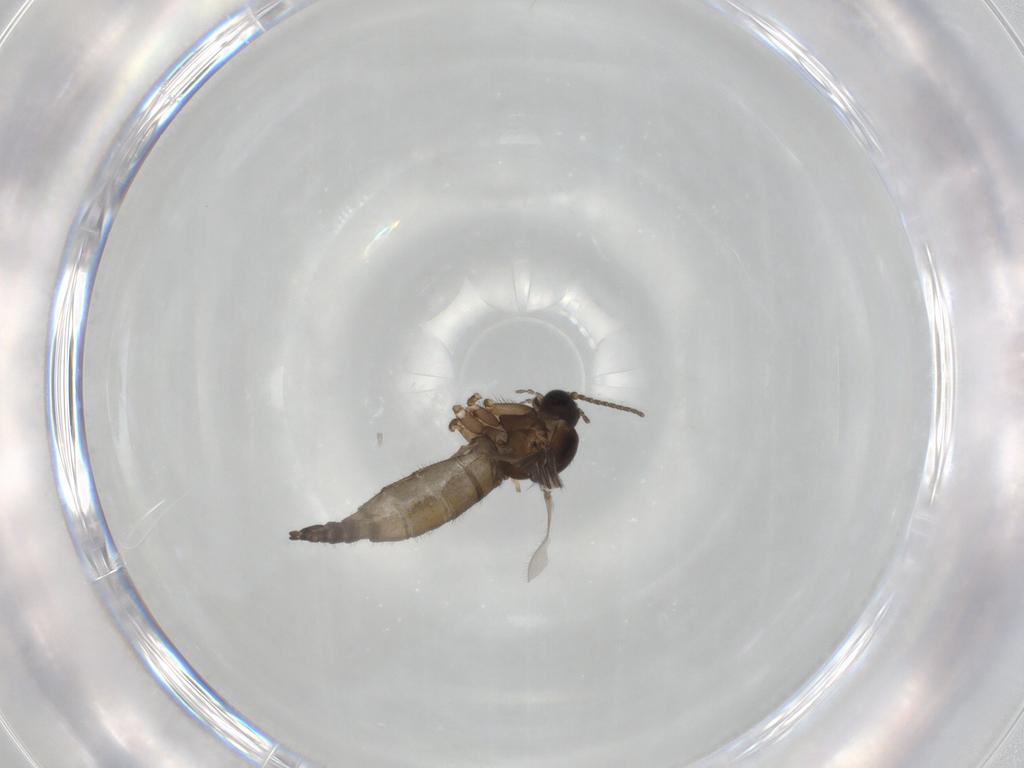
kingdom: Animalia
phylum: Arthropoda
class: Insecta
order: Diptera
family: Sciaridae
